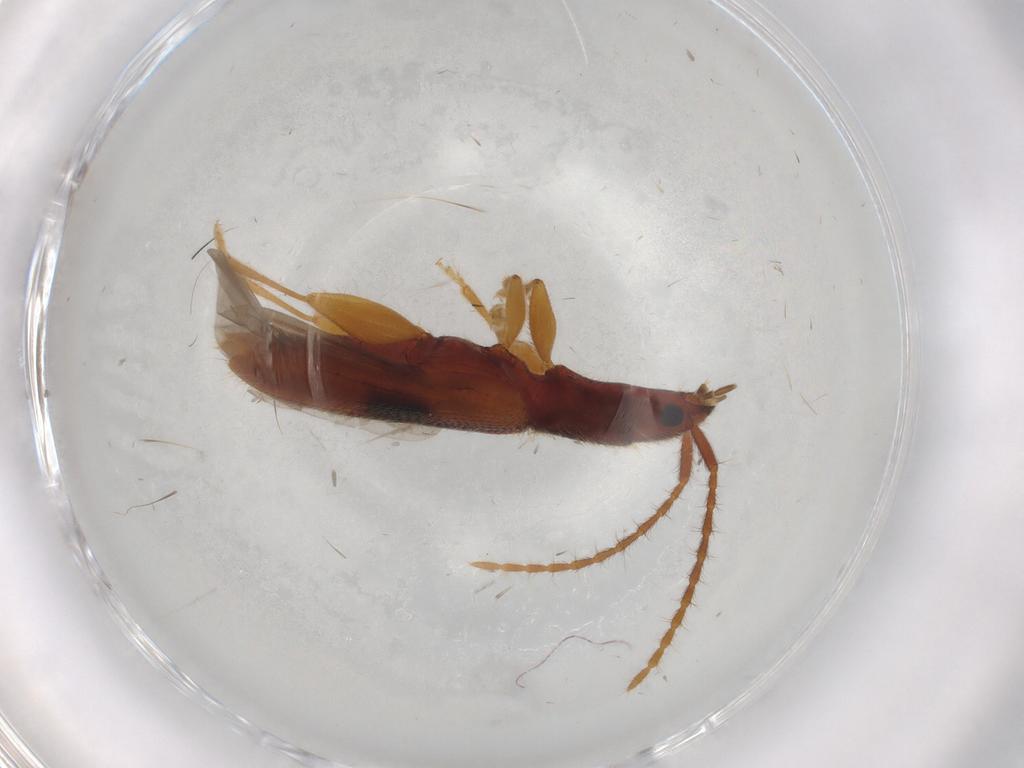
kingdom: Animalia
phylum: Arthropoda
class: Insecta
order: Coleoptera
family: Silvanidae
